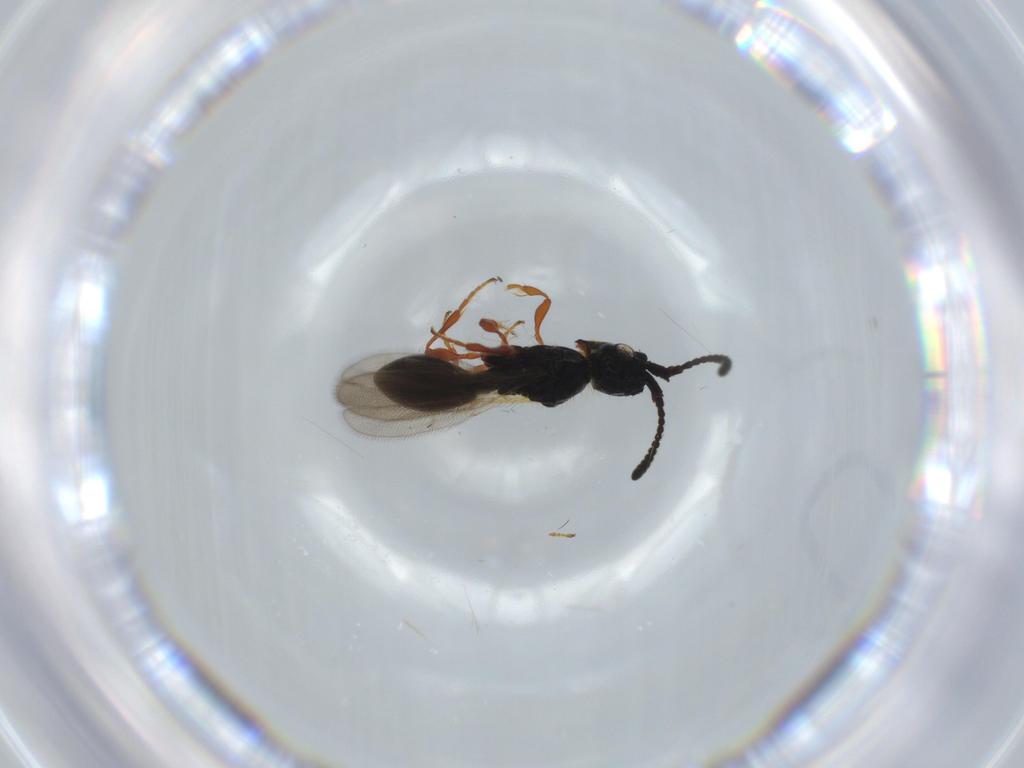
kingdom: Animalia
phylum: Arthropoda
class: Insecta
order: Hymenoptera
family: Diapriidae
